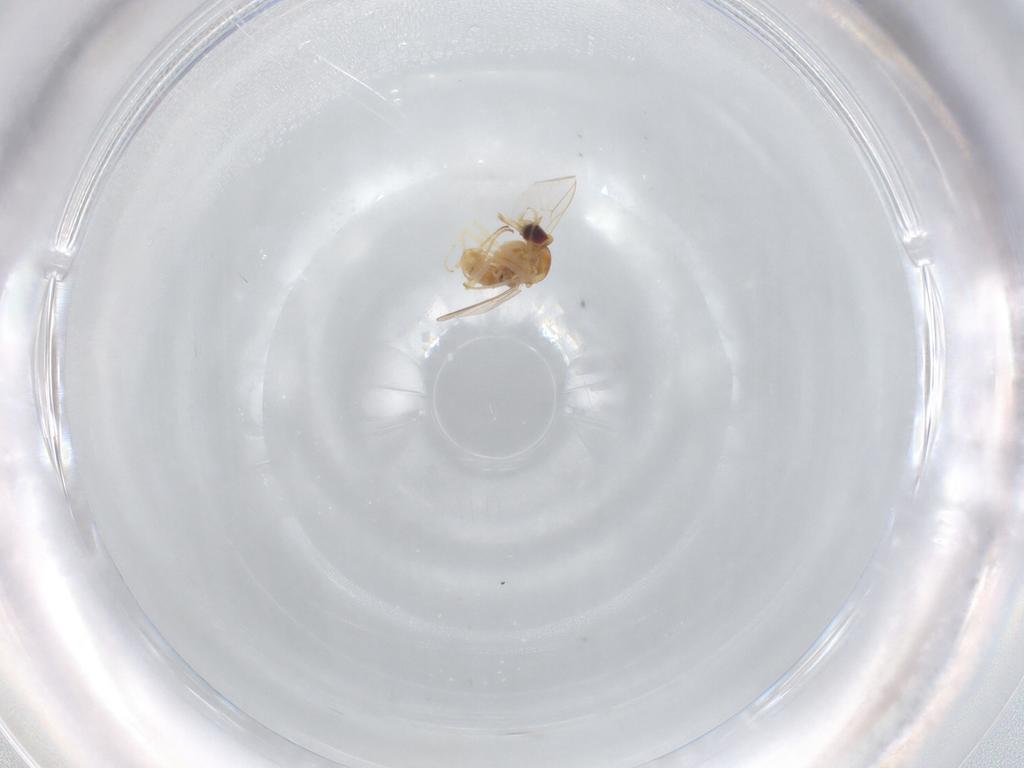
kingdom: Animalia
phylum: Arthropoda
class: Insecta
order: Diptera
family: Mythicomyiidae
